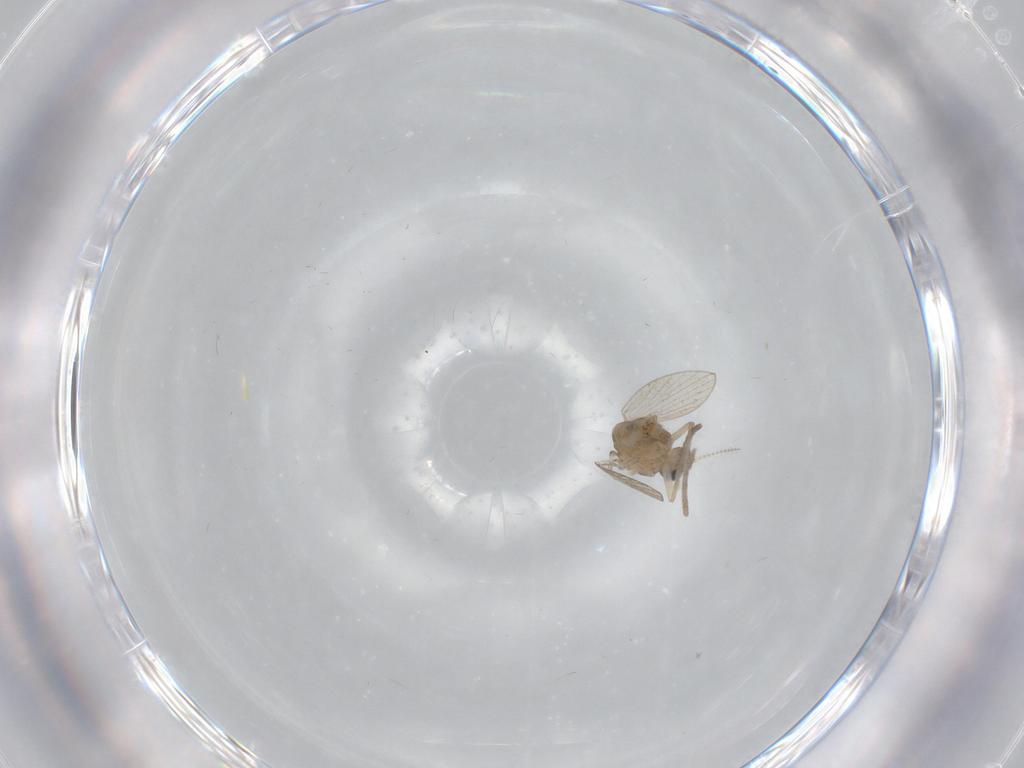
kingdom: Animalia
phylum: Arthropoda
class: Insecta
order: Diptera
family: Psychodidae
